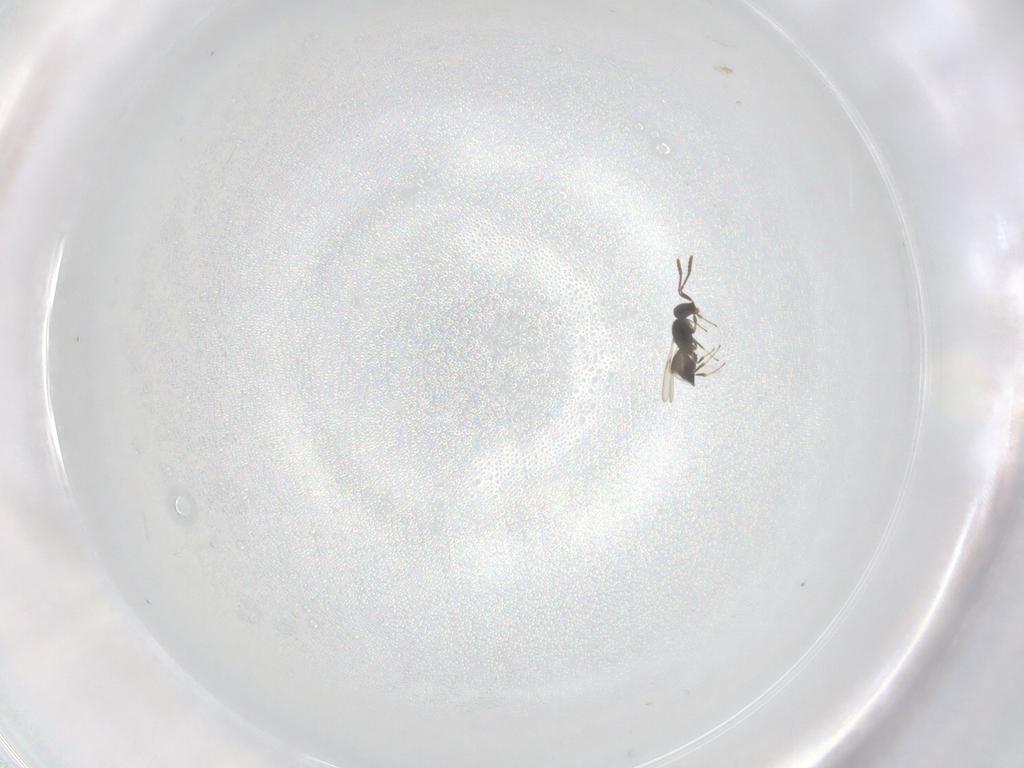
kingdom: Animalia
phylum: Arthropoda
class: Insecta
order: Hymenoptera
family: Scelionidae
